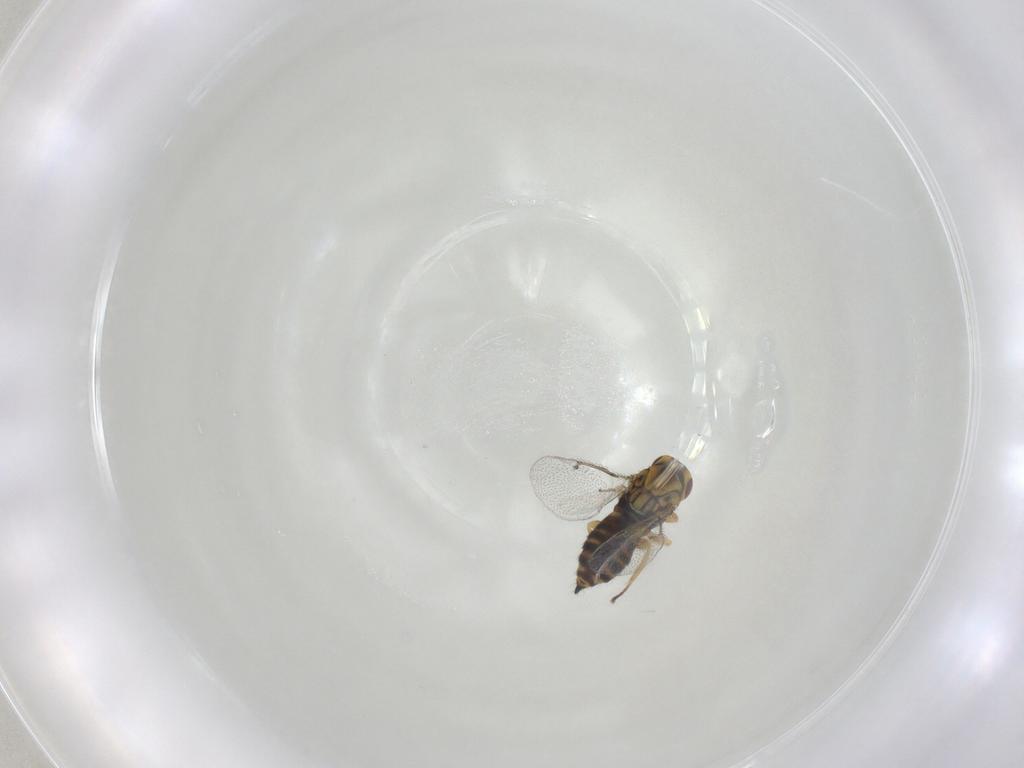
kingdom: Animalia
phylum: Arthropoda
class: Insecta
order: Hymenoptera
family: Eulophidae
